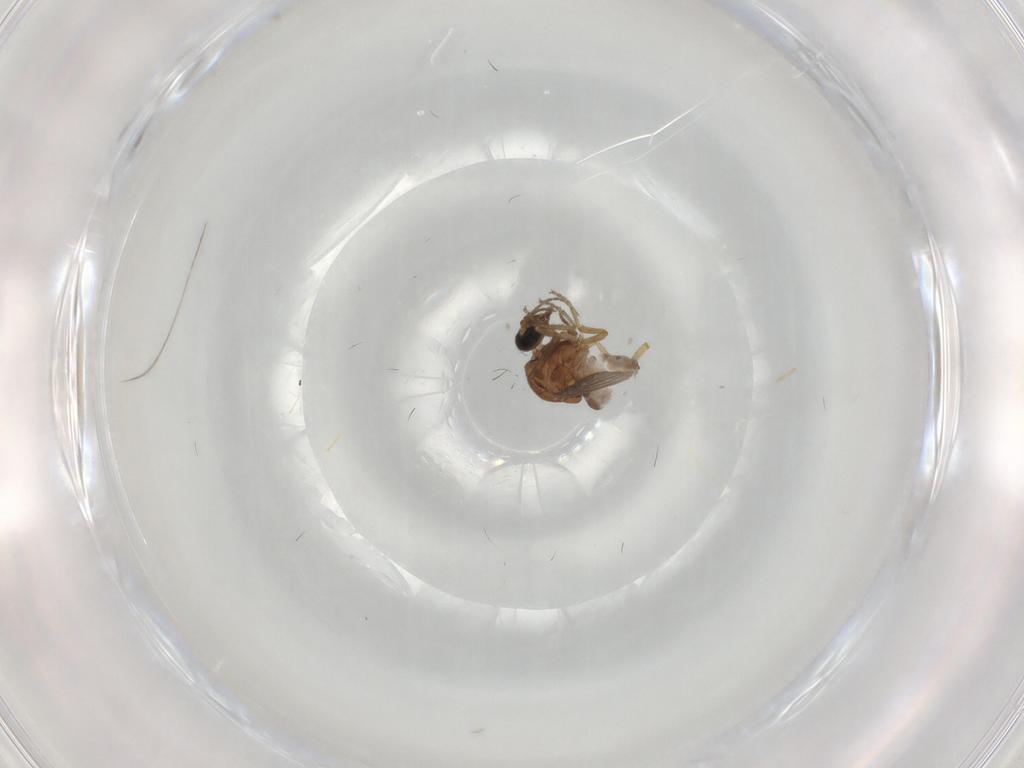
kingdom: Animalia
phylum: Arthropoda
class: Insecta
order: Diptera
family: Ceratopogonidae
